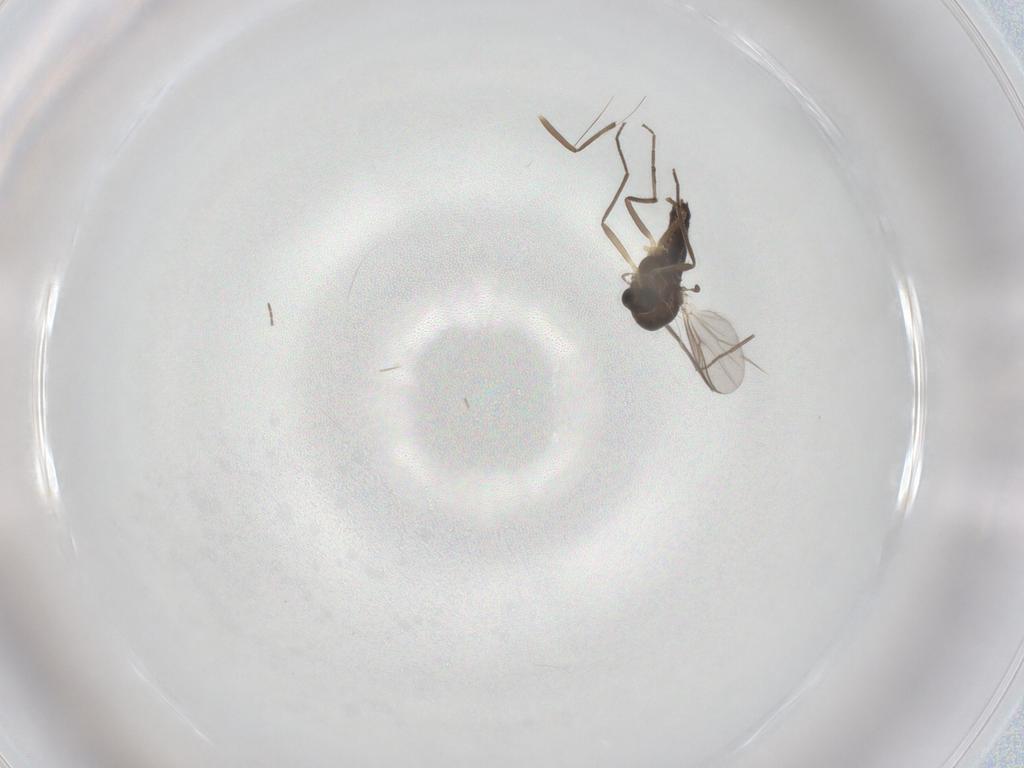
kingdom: Animalia
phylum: Arthropoda
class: Insecta
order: Diptera
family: Chironomidae
